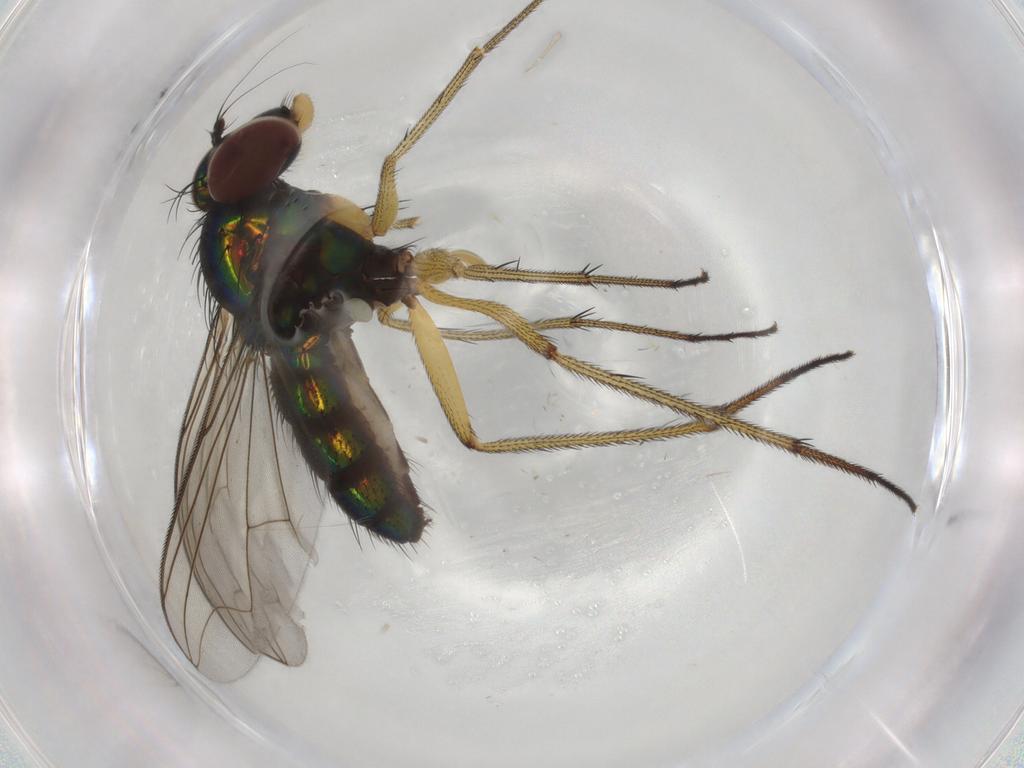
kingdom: Animalia
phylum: Arthropoda
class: Insecta
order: Diptera
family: Dolichopodidae
